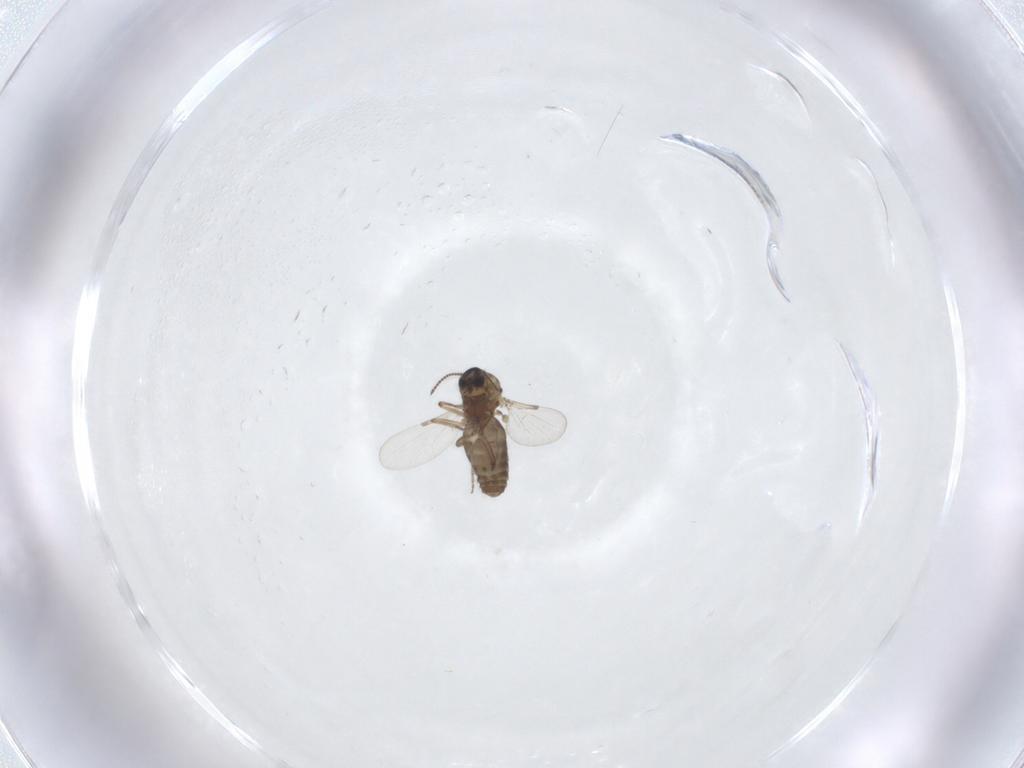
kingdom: Animalia
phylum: Arthropoda
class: Insecta
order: Diptera
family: Ceratopogonidae
